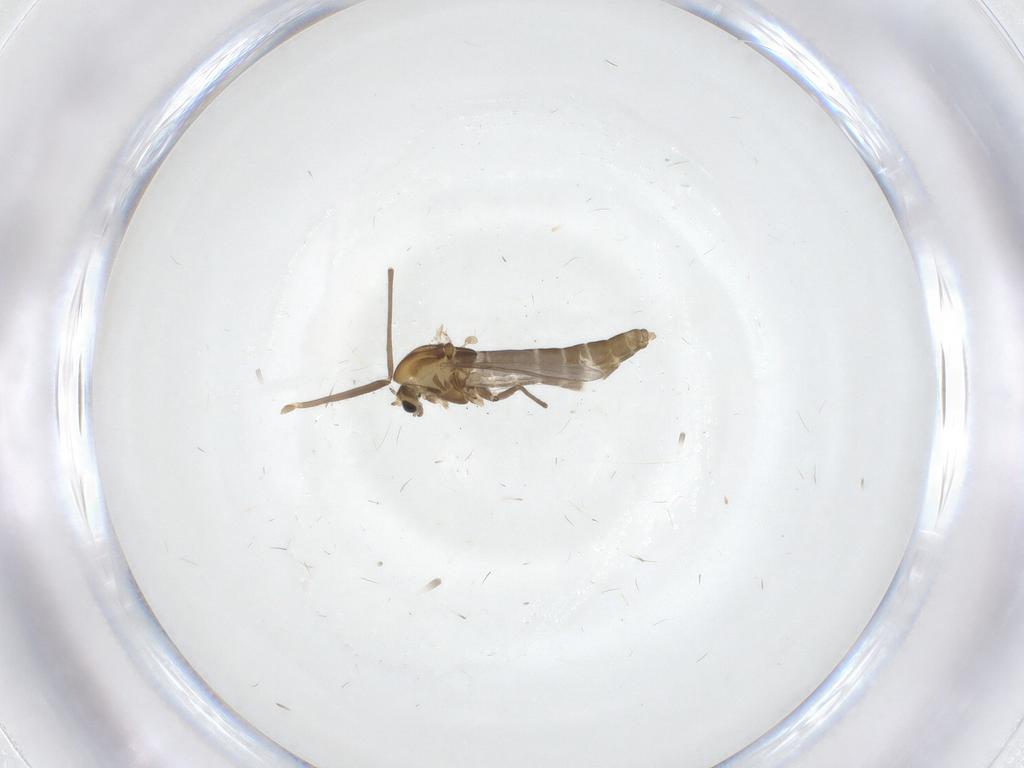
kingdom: Animalia
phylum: Arthropoda
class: Insecta
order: Diptera
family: Chironomidae
